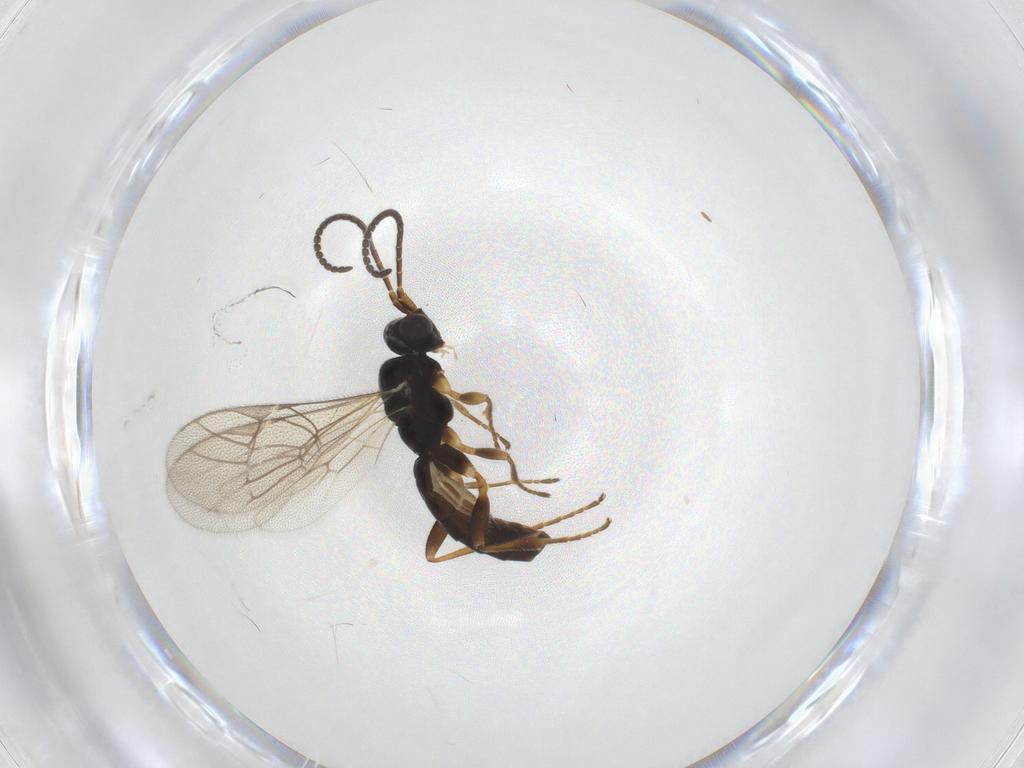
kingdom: Animalia
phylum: Arthropoda
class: Insecta
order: Hymenoptera
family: Ichneumonidae
